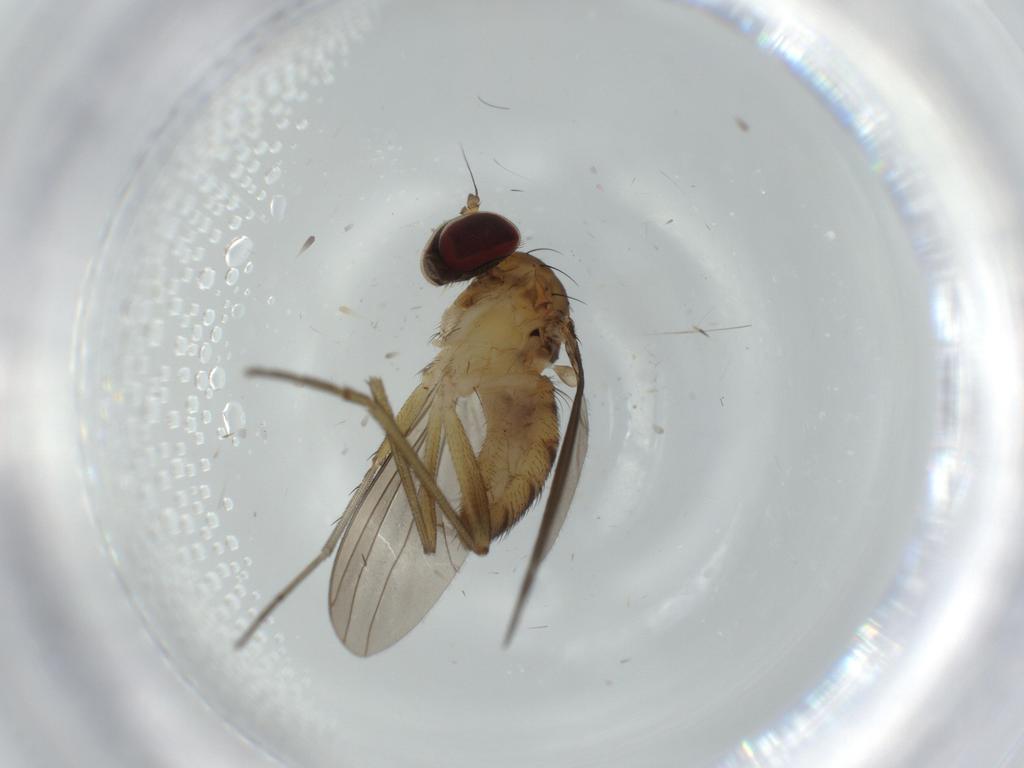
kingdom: Animalia
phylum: Arthropoda
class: Insecta
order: Diptera
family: Dolichopodidae
